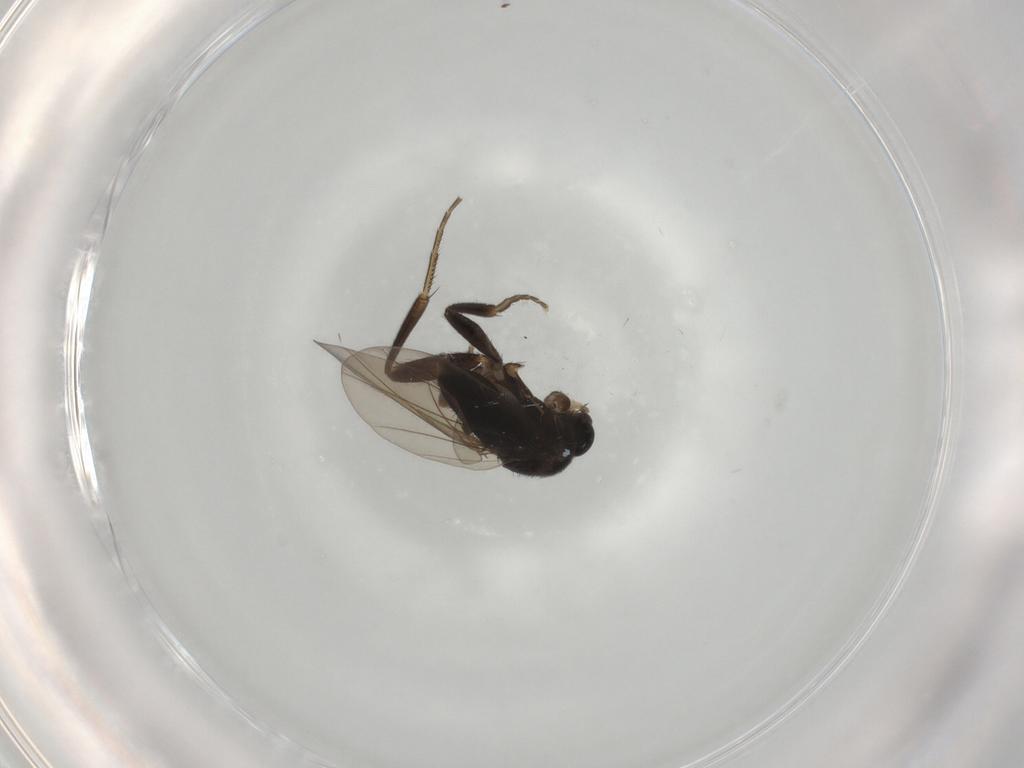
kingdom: Animalia
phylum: Arthropoda
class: Insecta
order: Diptera
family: Phoridae
